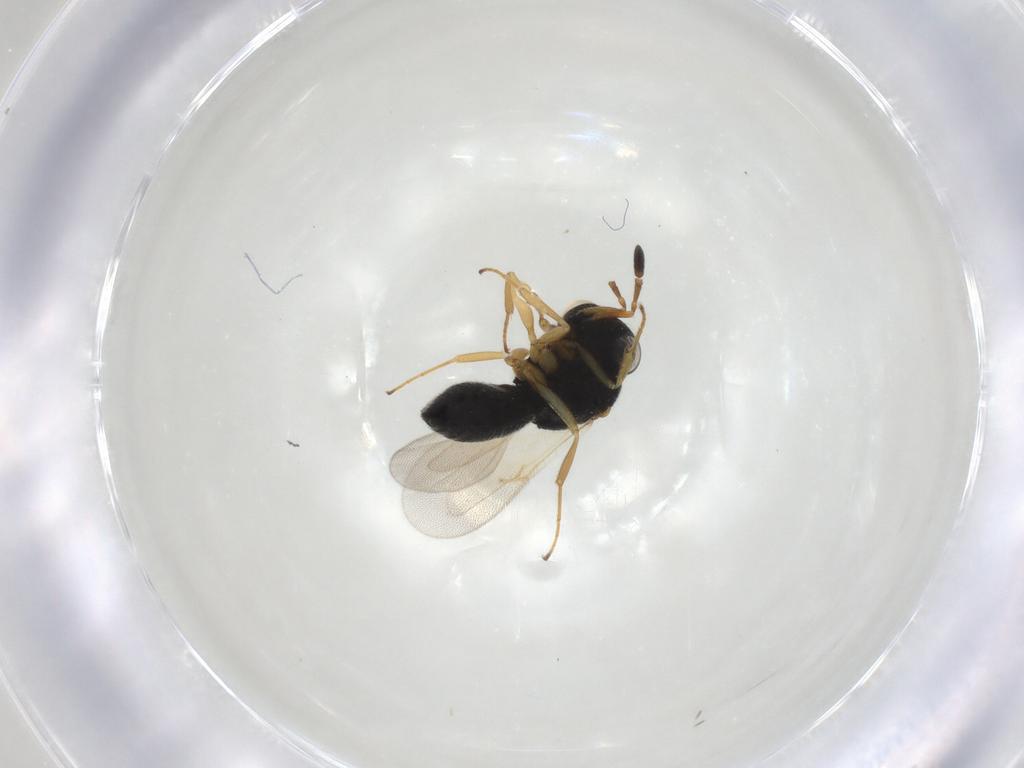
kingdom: Animalia
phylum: Arthropoda
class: Insecta
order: Hymenoptera
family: Scelionidae
